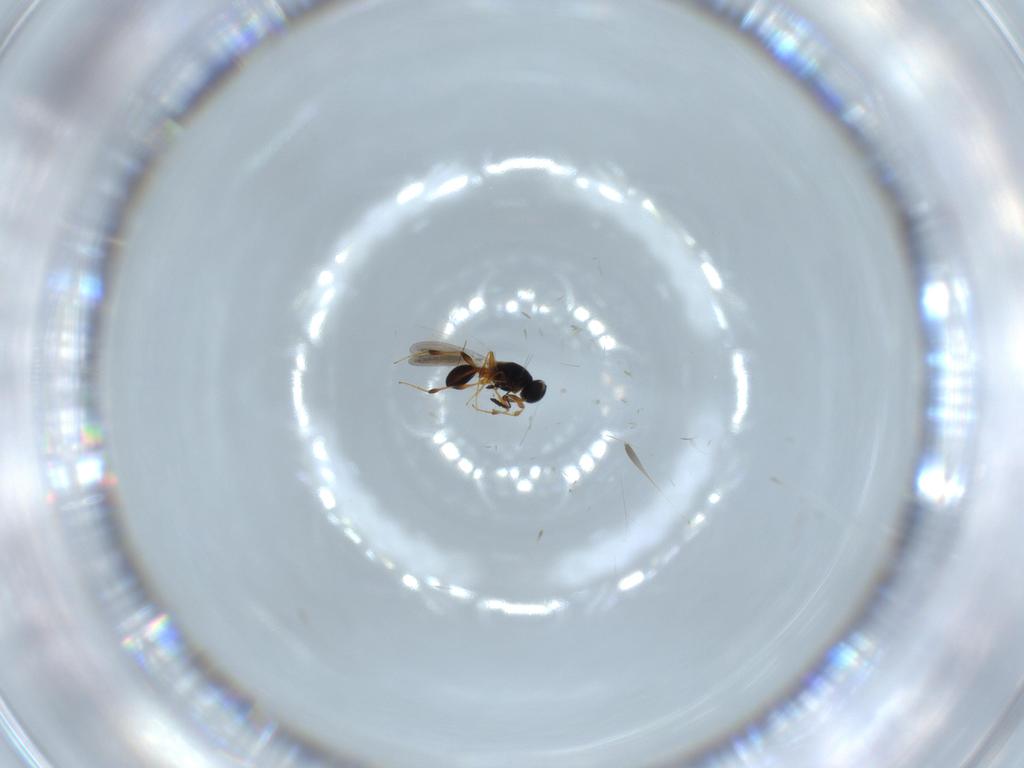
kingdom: Animalia
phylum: Arthropoda
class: Insecta
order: Hymenoptera
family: Platygastridae
